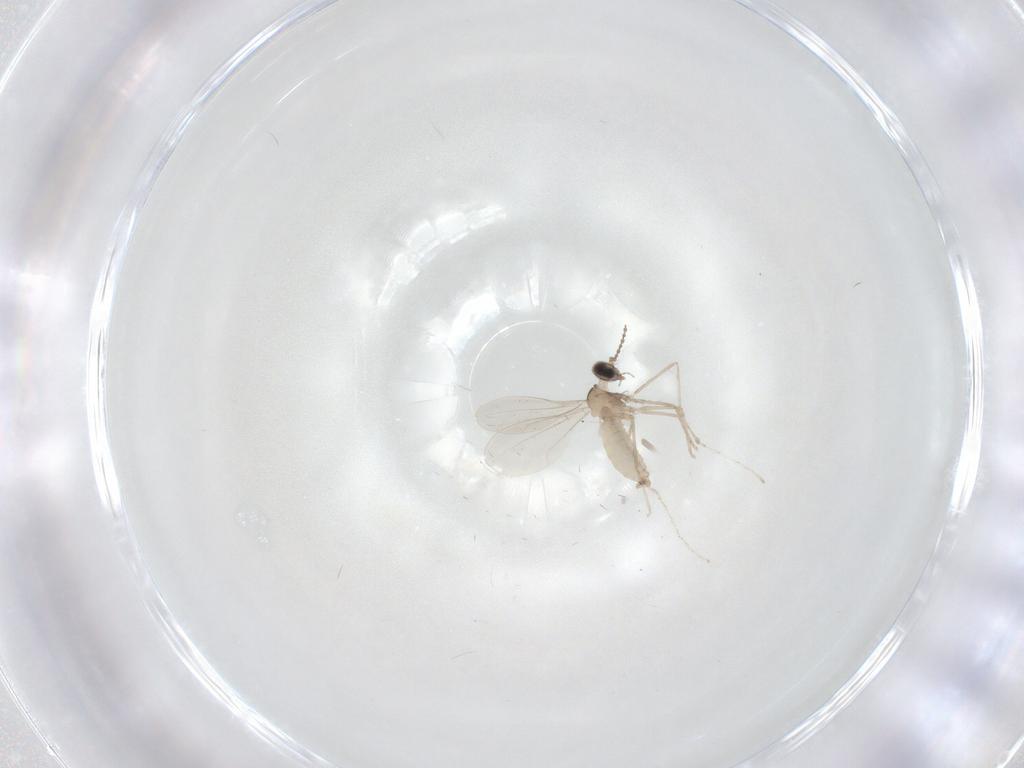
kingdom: Animalia
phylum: Arthropoda
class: Insecta
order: Diptera
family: Cecidomyiidae
